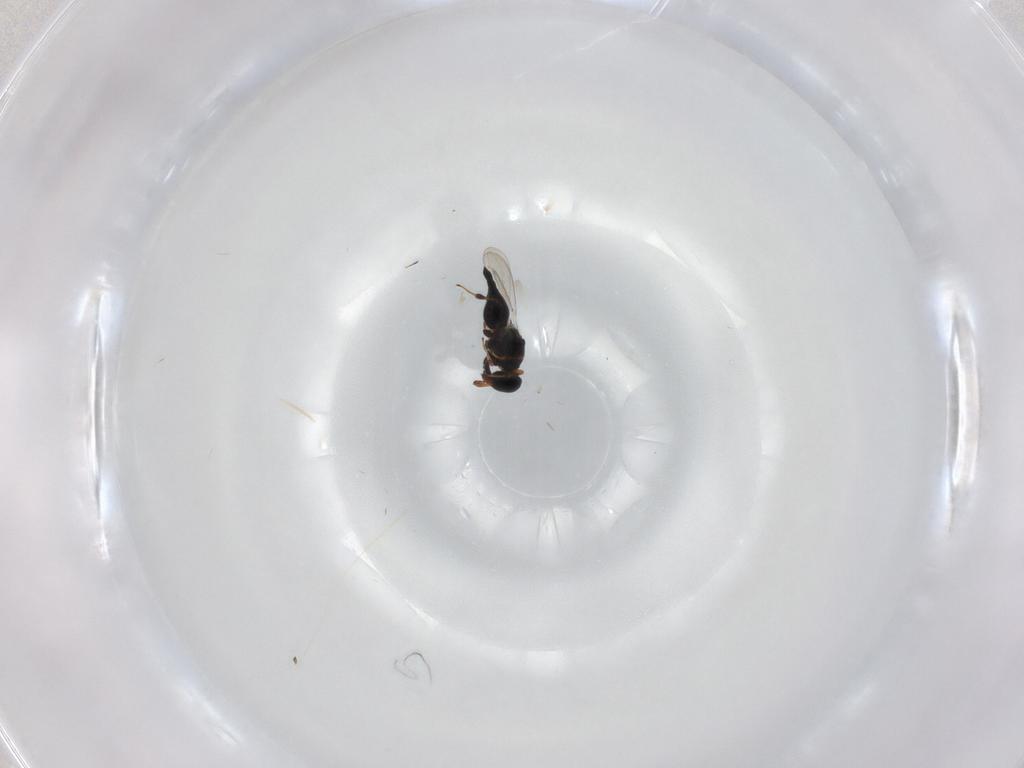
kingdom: Animalia
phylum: Arthropoda
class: Insecta
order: Hymenoptera
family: Platygastridae
